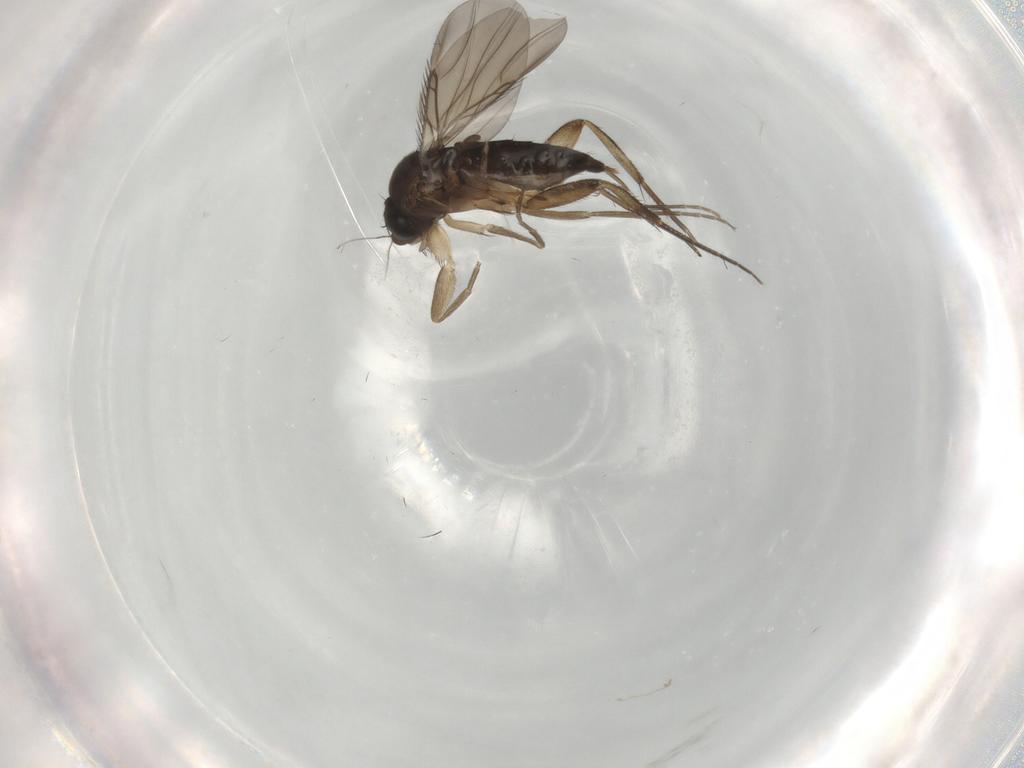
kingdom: Animalia
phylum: Arthropoda
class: Insecta
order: Diptera
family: Phoridae
